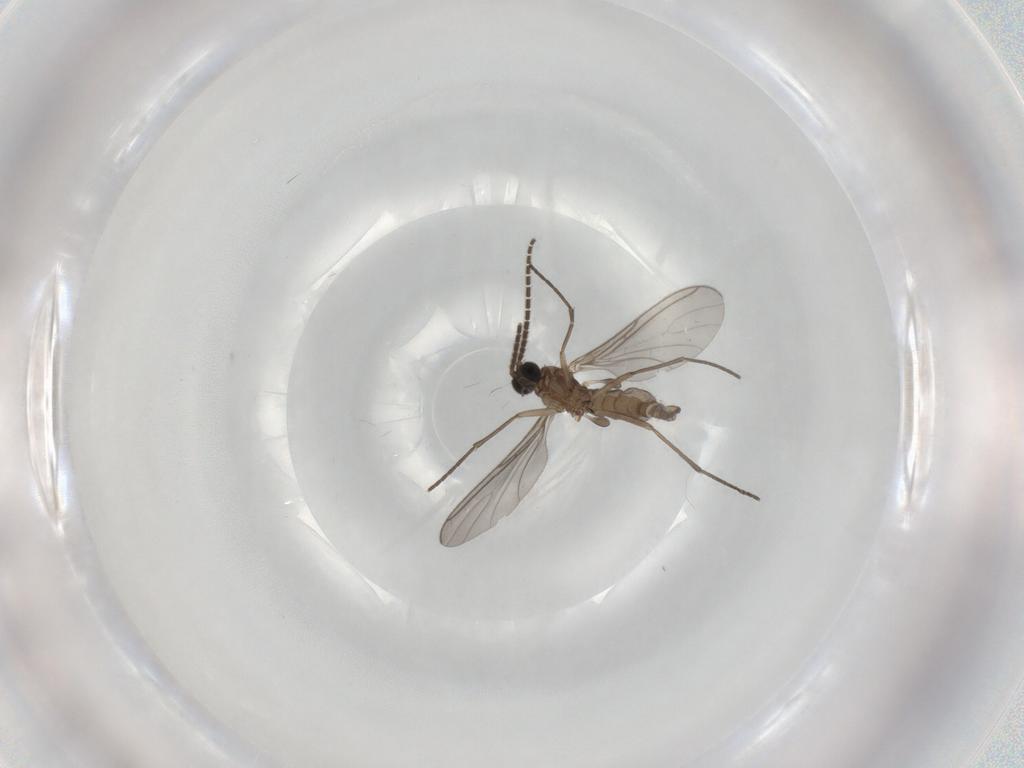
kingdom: Animalia
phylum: Arthropoda
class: Insecta
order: Diptera
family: Sciaridae
